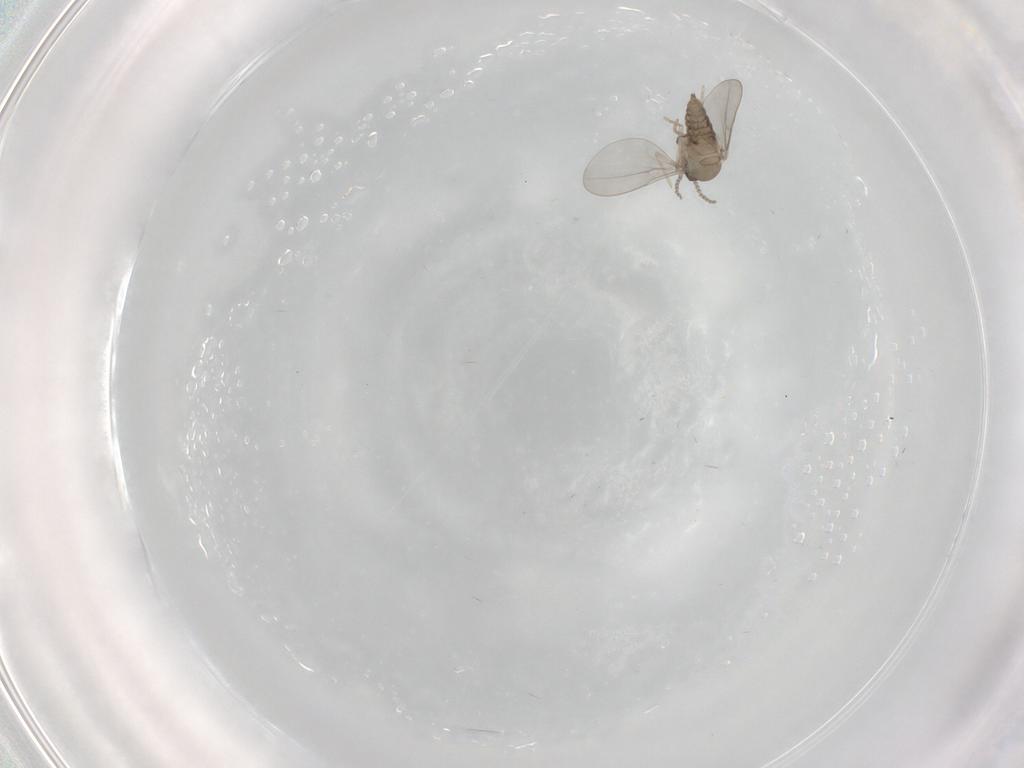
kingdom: Animalia
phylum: Arthropoda
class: Insecta
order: Diptera
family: Cecidomyiidae
